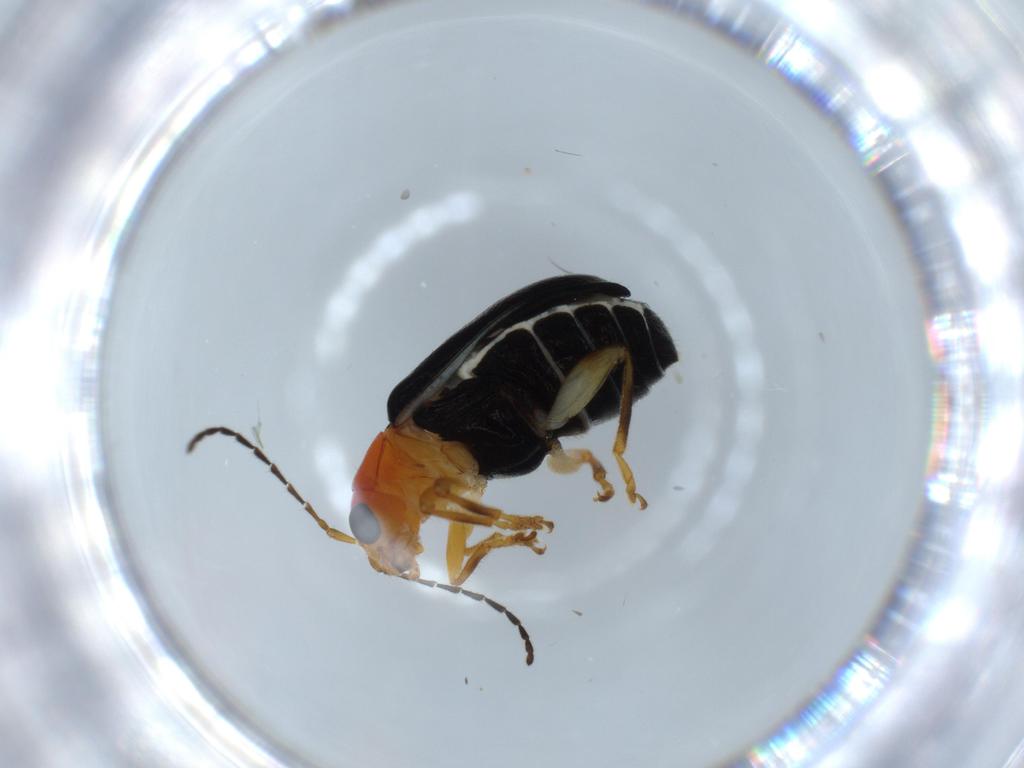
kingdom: Animalia
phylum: Arthropoda
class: Insecta
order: Coleoptera
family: Chrysomelidae
